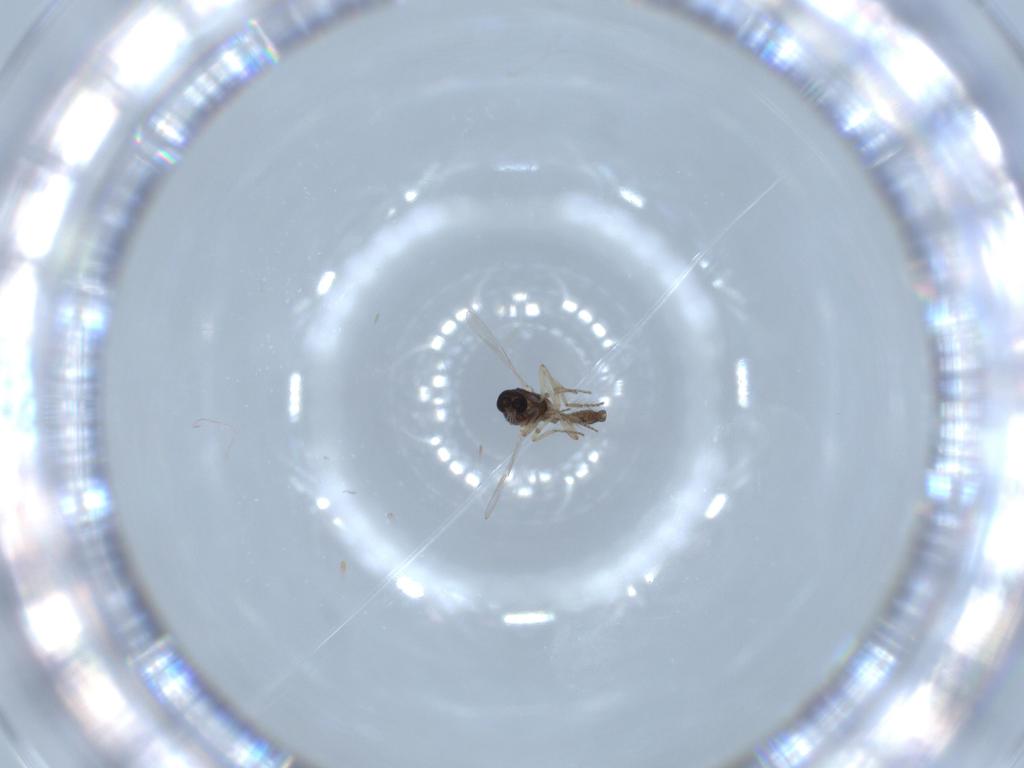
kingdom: Animalia
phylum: Arthropoda
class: Insecta
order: Diptera
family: Ceratopogonidae
